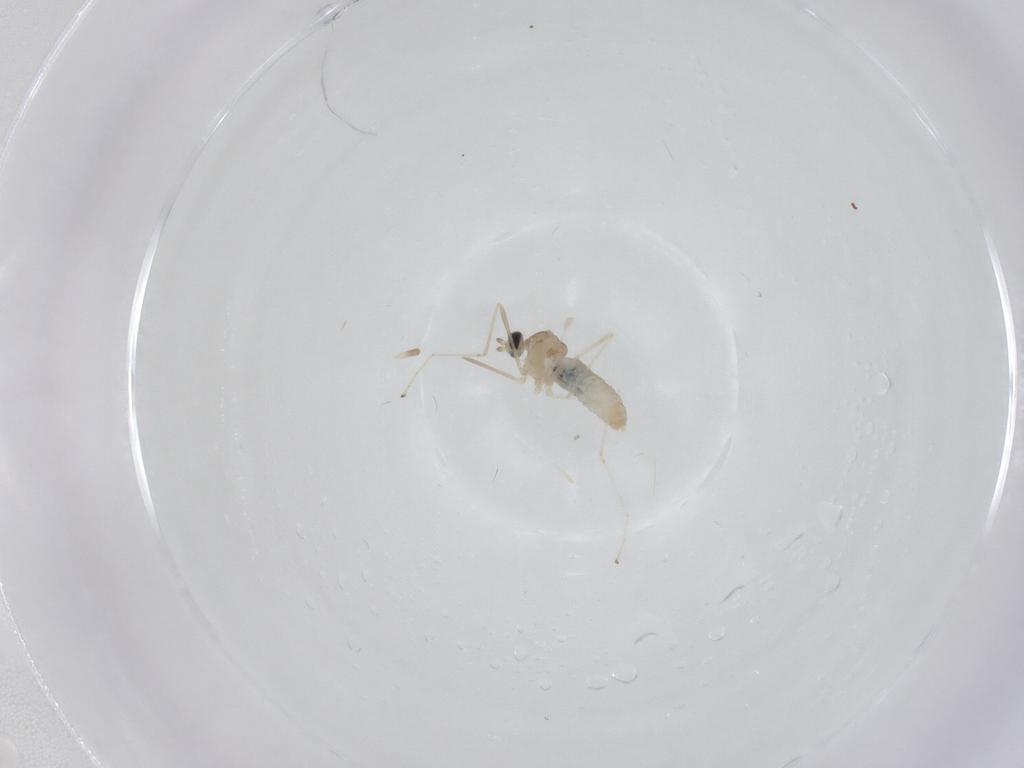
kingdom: Animalia
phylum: Arthropoda
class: Insecta
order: Diptera
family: Cecidomyiidae
